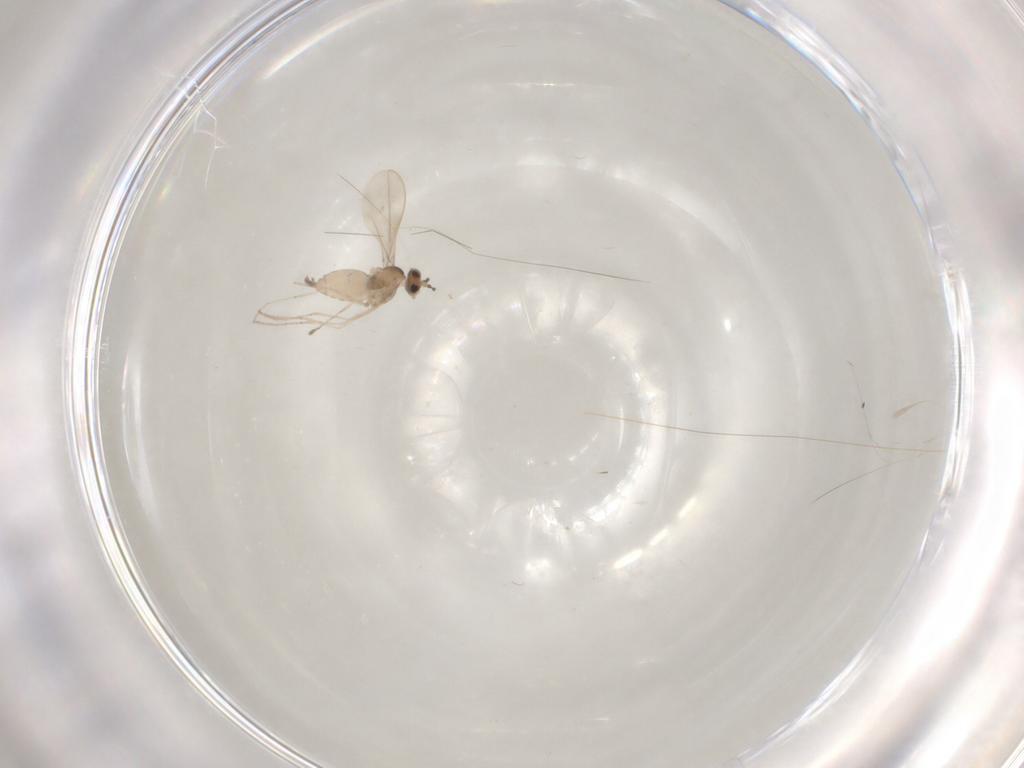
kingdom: Animalia
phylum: Arthropoda
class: Insecta
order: Diptera
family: Cecidomyiidae
